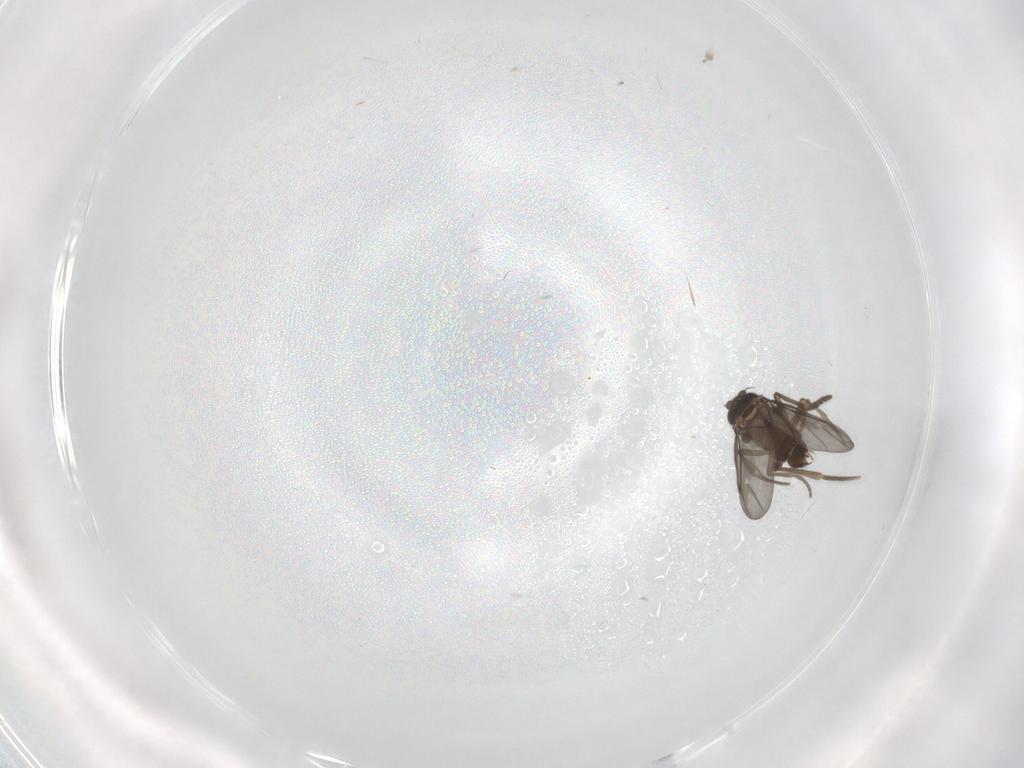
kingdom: Animalia
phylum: Arthropoda
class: Insecta
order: Diptera
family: Phoridae
